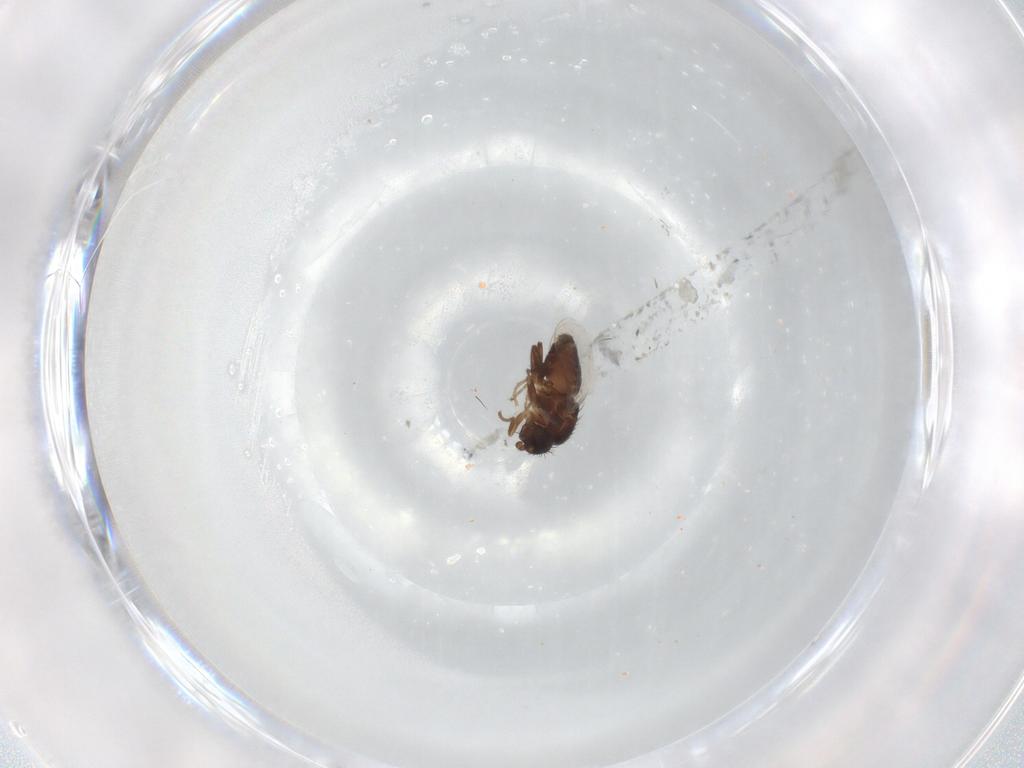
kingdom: Animalia
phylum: Arthropoda
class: Insecta
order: Diptera
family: Sphaeroceridae
